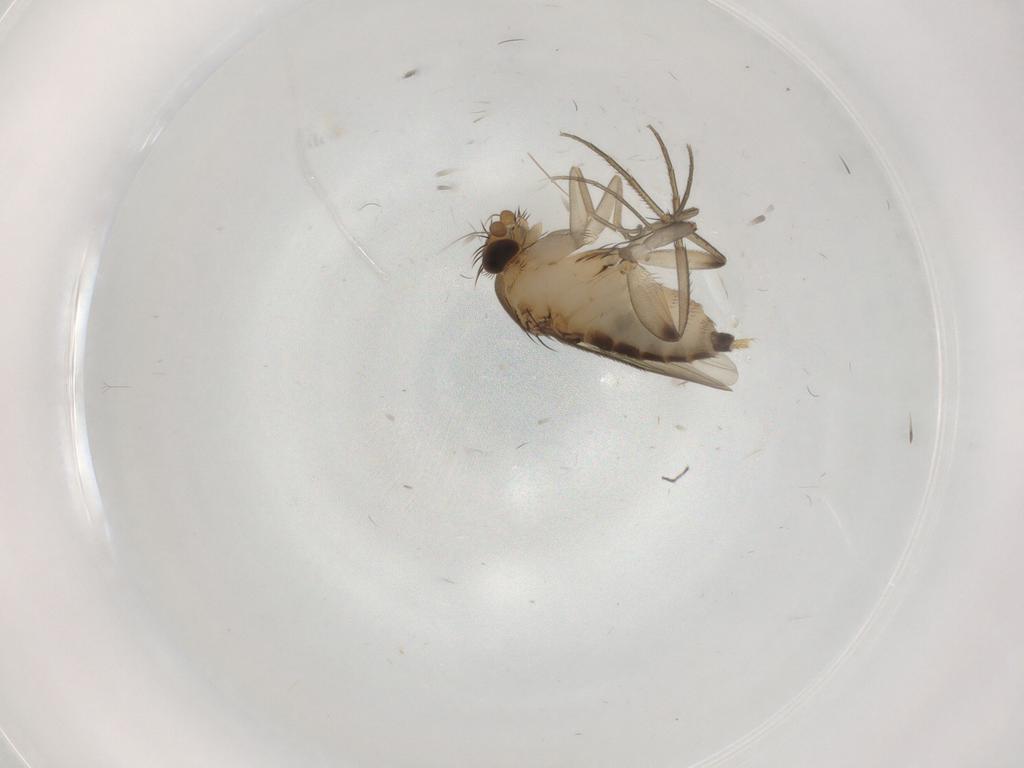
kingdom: Animalia
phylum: Arthropoda
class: Insecta
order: Diptera
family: Phoridae
